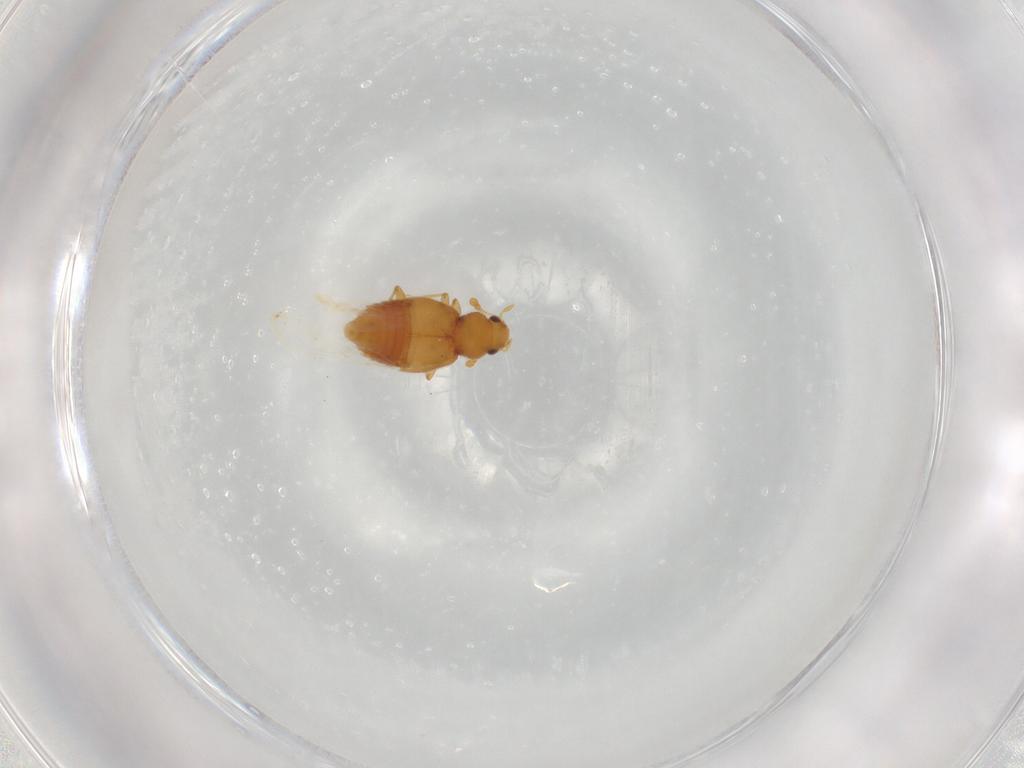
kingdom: Animalia
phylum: Arthropoda
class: Insecta
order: Coleoptera
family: Staphylinidae
